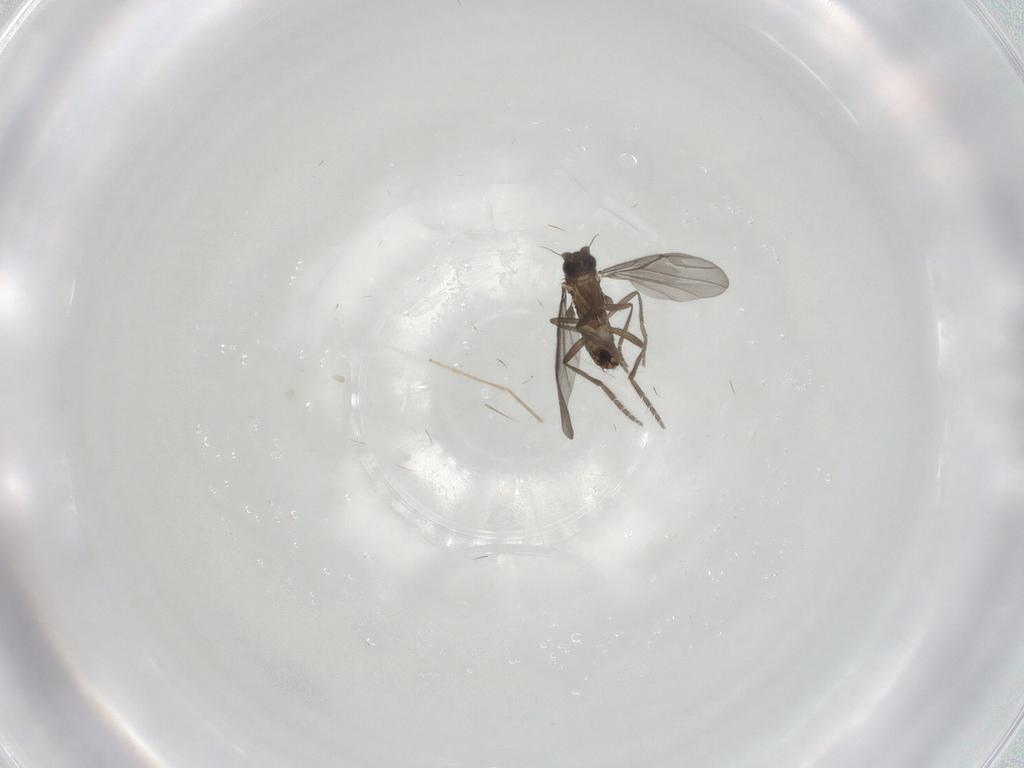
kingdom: Animalia
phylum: Arthropoda
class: Insecta
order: Diptera
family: Phoridae
